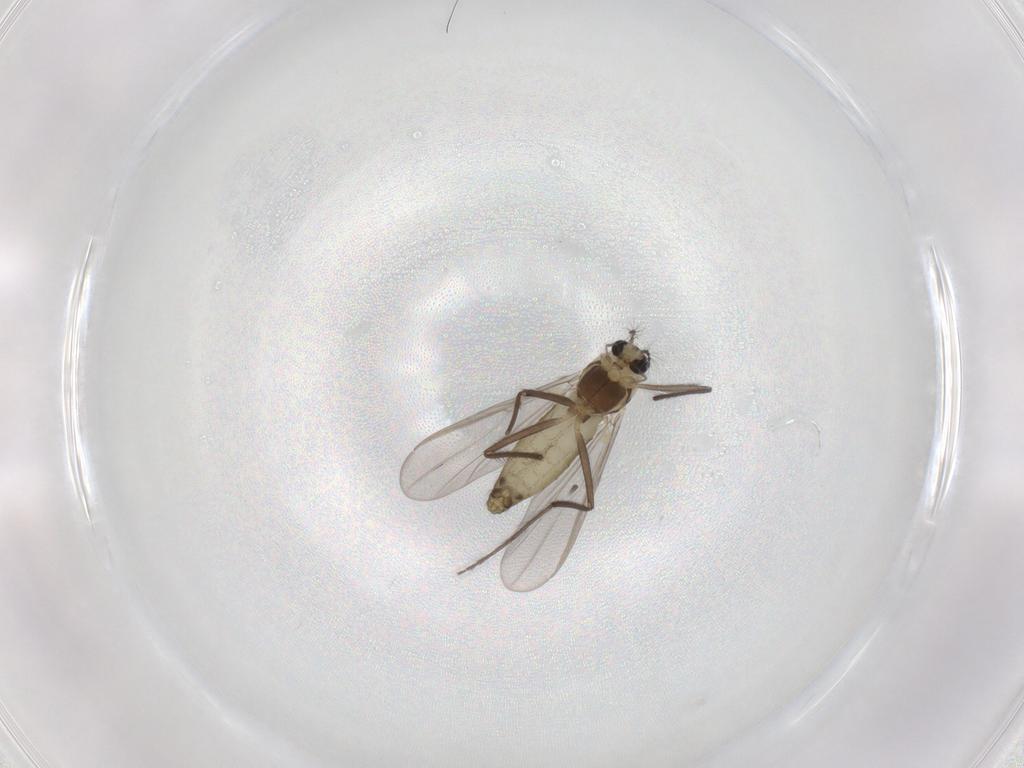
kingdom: Animalia
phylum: Arthropoda
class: Insecta
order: Diptera
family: Chironomidae
